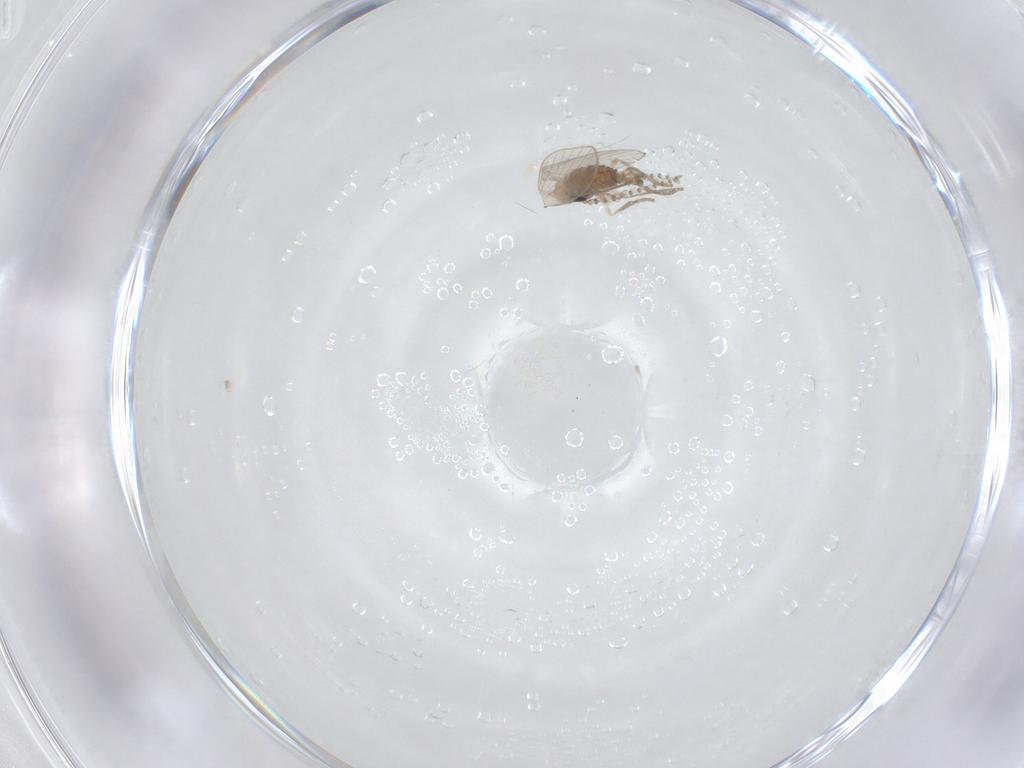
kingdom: Animalia
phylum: Arthropoda
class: Insecta
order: Diptera
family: Psychodidae
